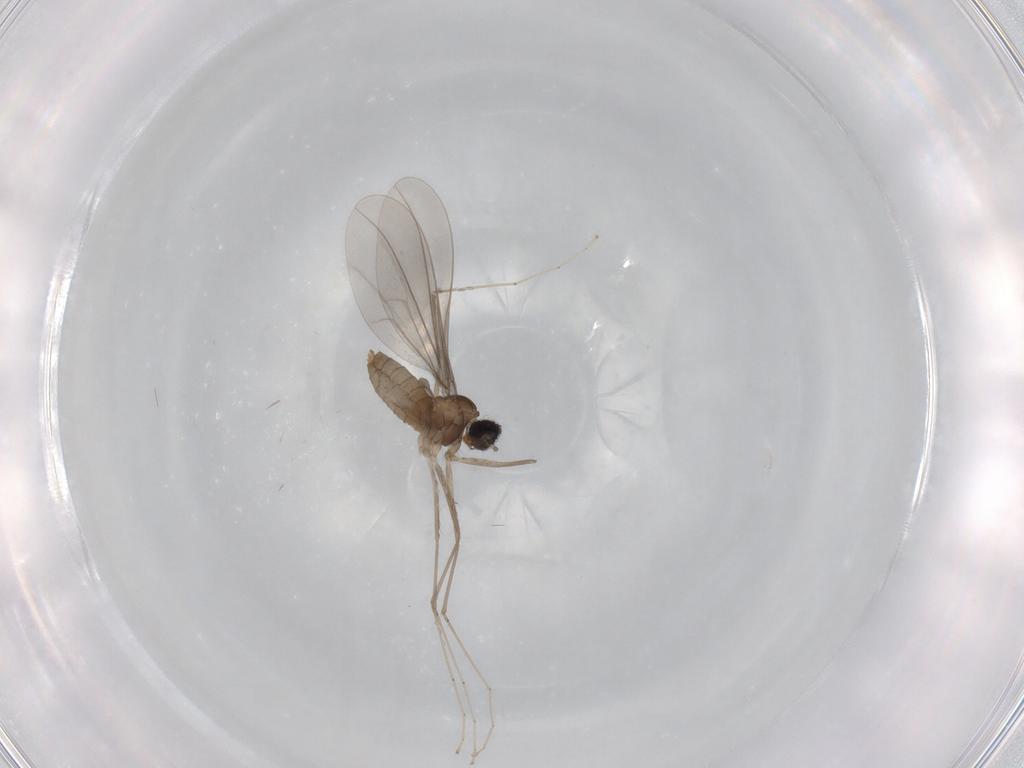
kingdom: Animalia
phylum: Arthropoda
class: Insecta
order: Diptera
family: Cecidomyiidae
